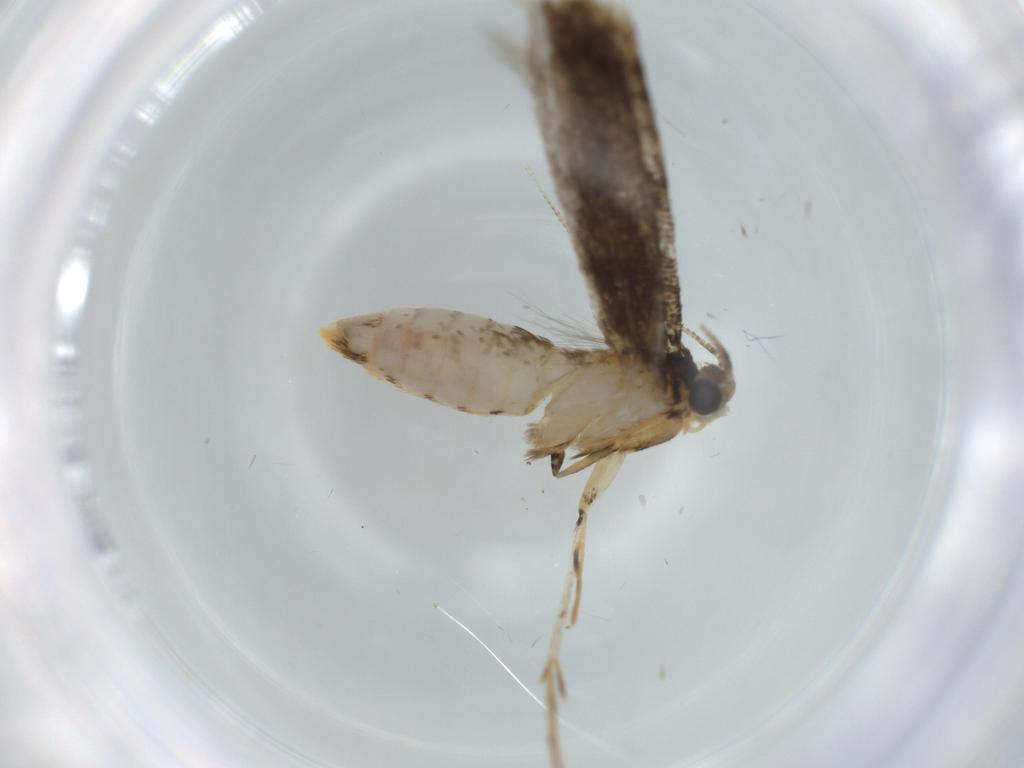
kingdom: Animalia
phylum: Arthropoda
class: Insecta
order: Lepidoptera
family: Tineidae
